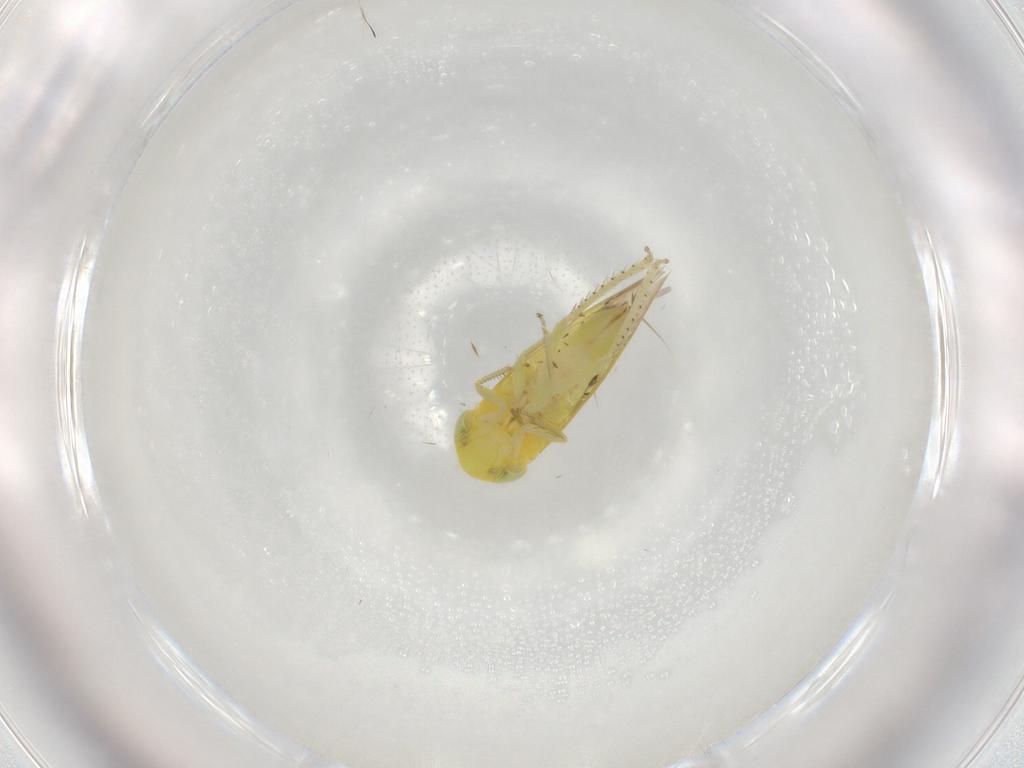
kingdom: Animalia
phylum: Arthropoda
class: Insecta
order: Hemiptera
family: Cicadellidae
